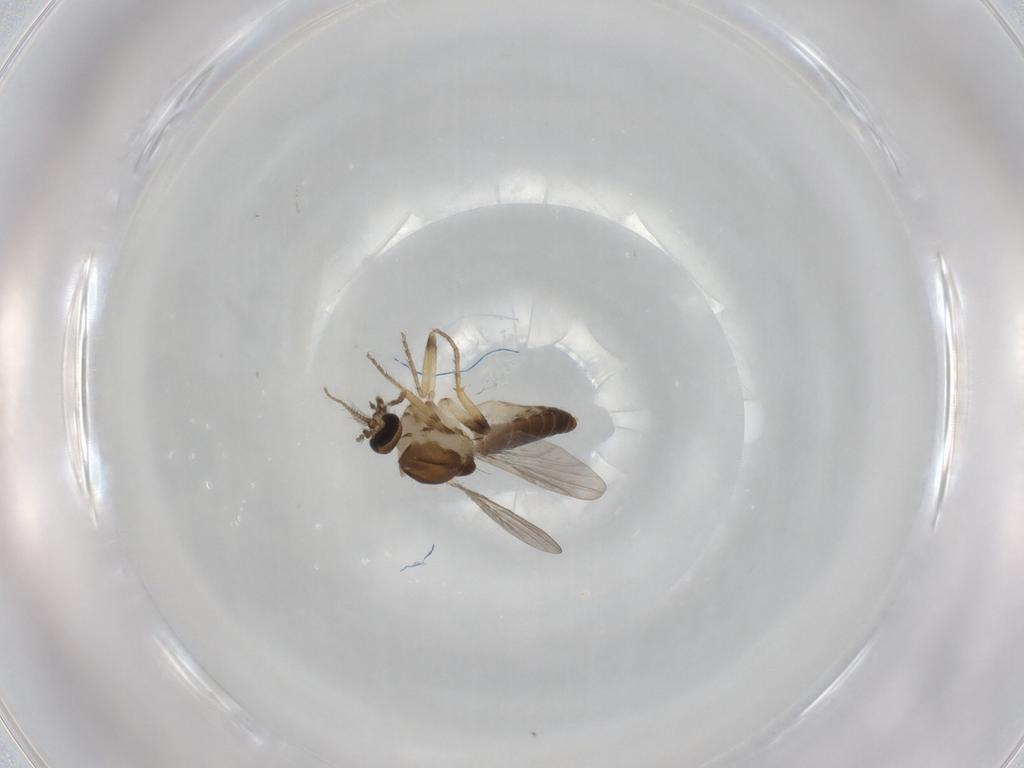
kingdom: Animalia
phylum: Arthropoda
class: Insecta
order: Diptera
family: Ceratopogonidae
